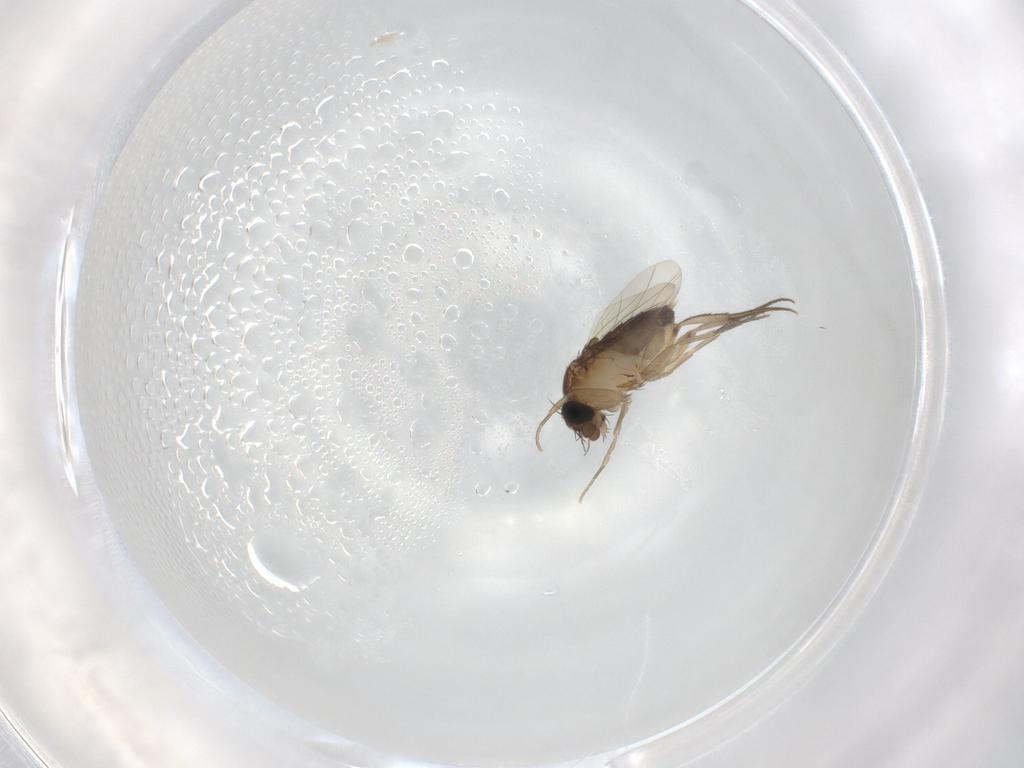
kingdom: Animalia
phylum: Arthropoda
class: Insecta
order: Diptera
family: Phoridae
